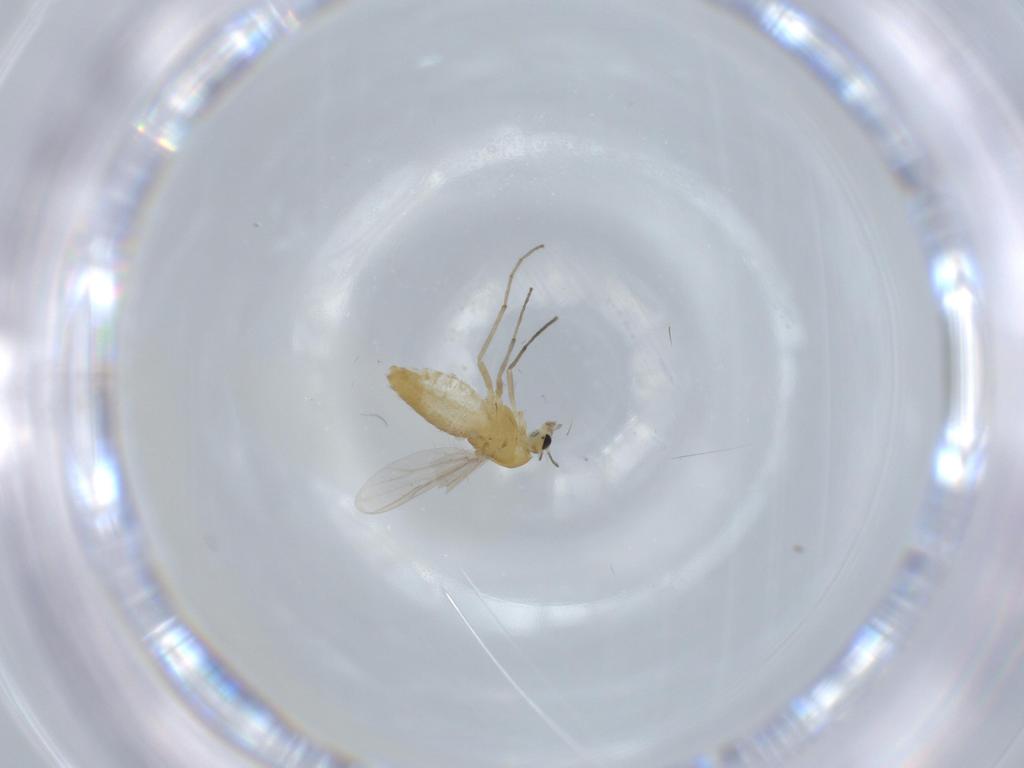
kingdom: Animalia
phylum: Arthropoda
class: Insecta
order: Diptera
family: Chironomidae
